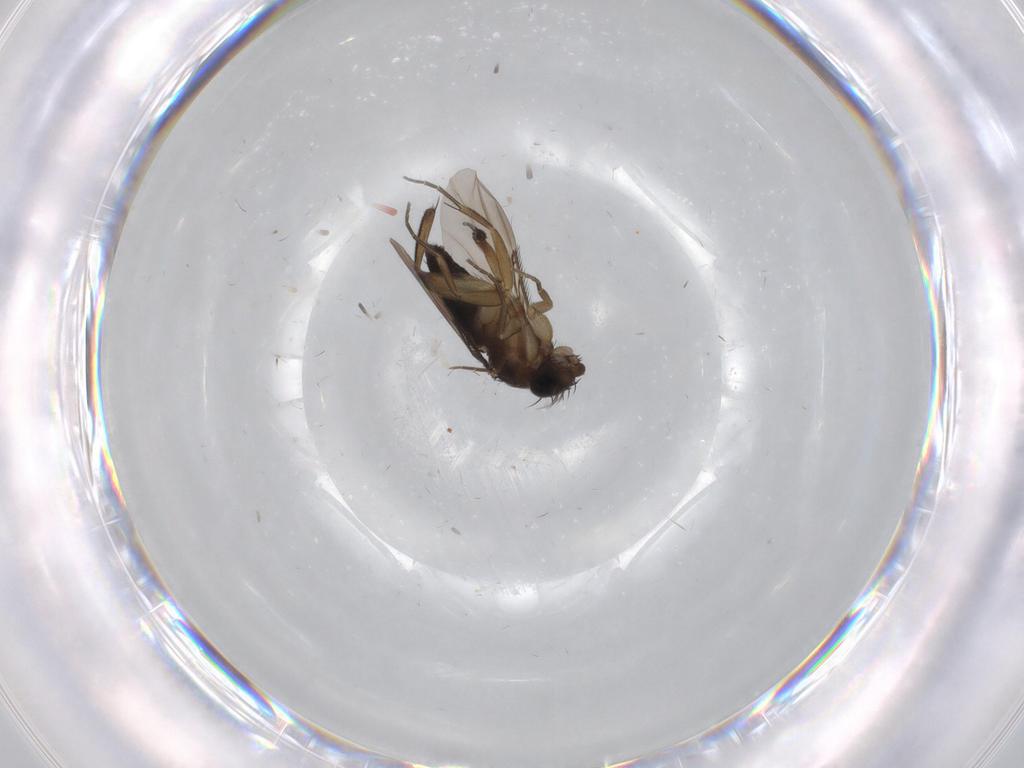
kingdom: Animalia
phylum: Arthropoda
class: Insecta
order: Diptera
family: Phoridae
